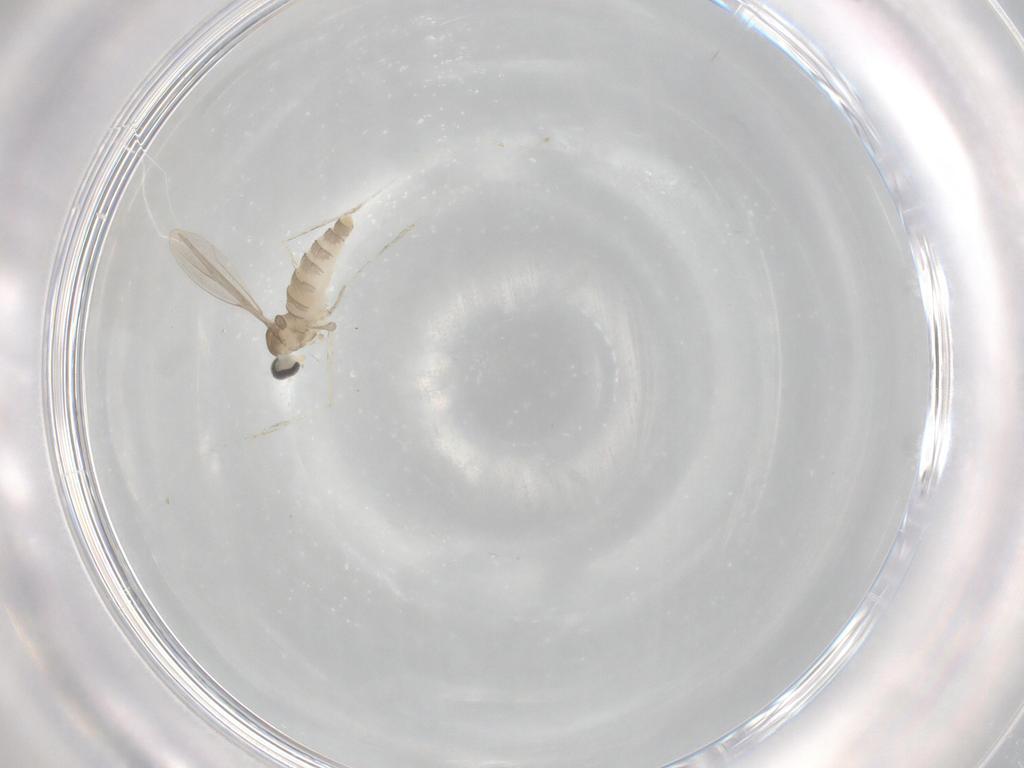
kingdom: Animalia
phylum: Arthropoda
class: Insecta
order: Diptera
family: Cecidomyiidae
